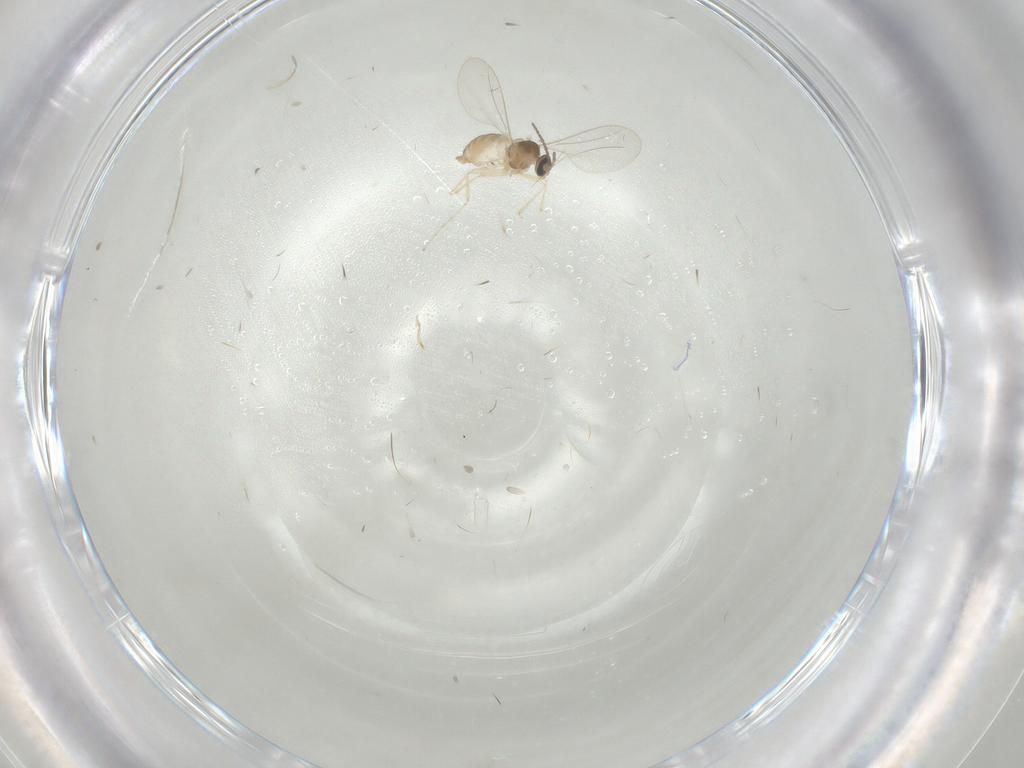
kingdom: Animalia
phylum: Arthropoda
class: Insecta
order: Diptera
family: Cecidomyiidae
